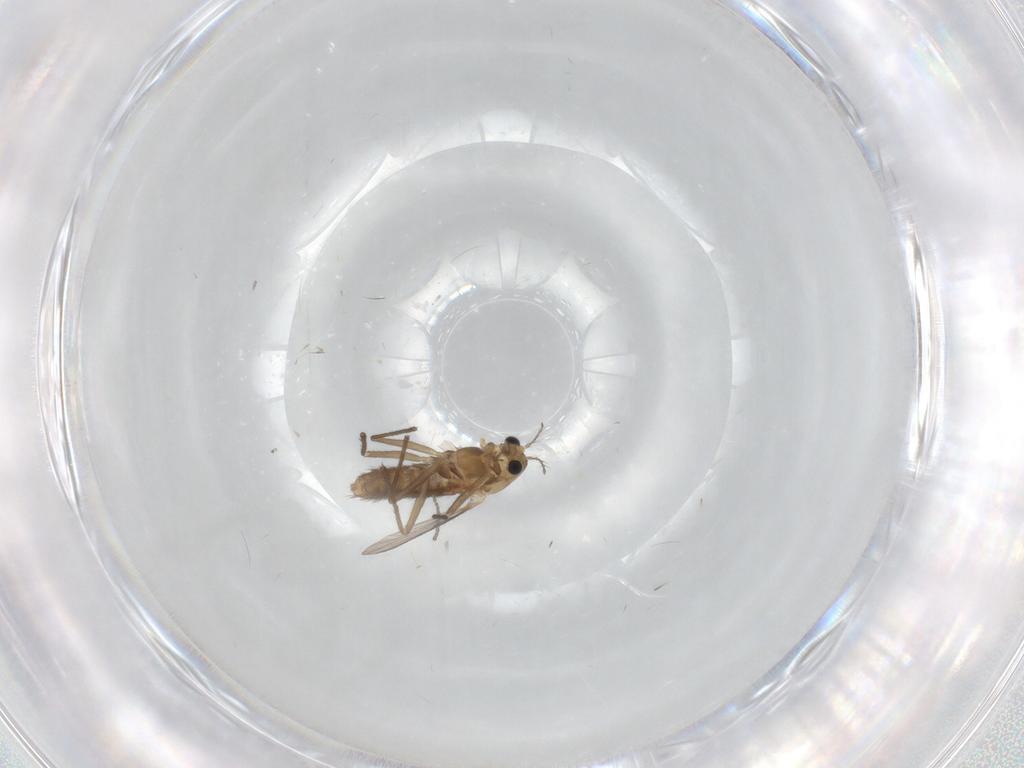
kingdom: Animalia
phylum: Arthropoda
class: Insecta
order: Diptera
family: Chironomidae
